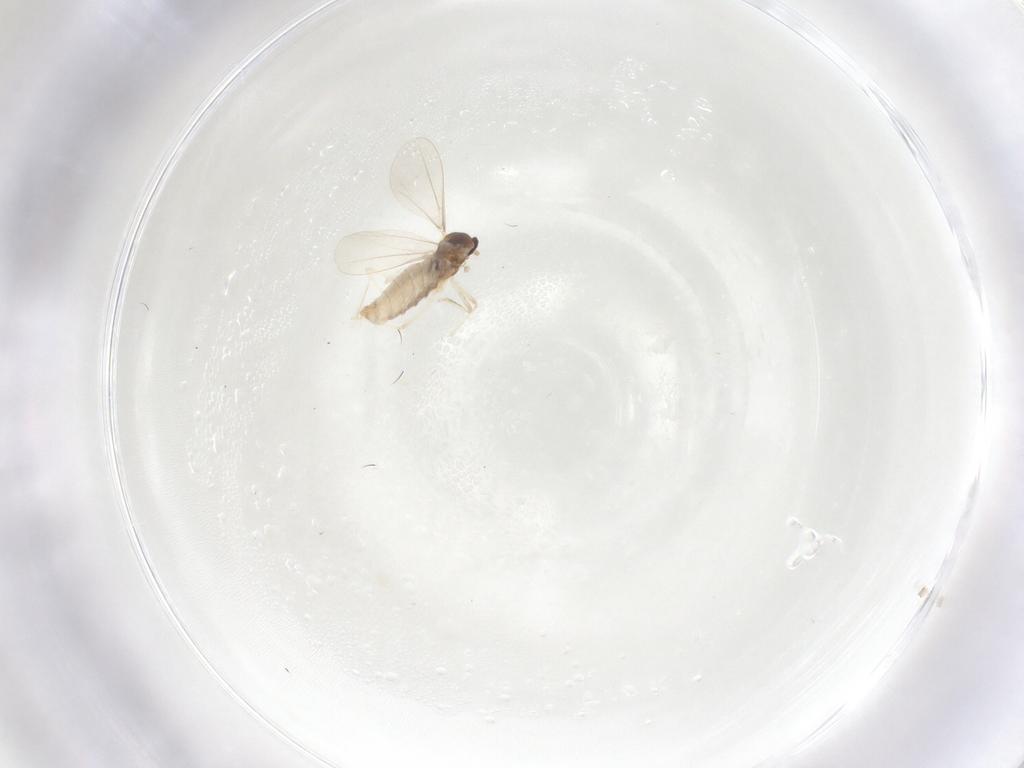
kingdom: Animalia
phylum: Arthropoda
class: Insecta
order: Diptera
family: Cecidomyiidae
